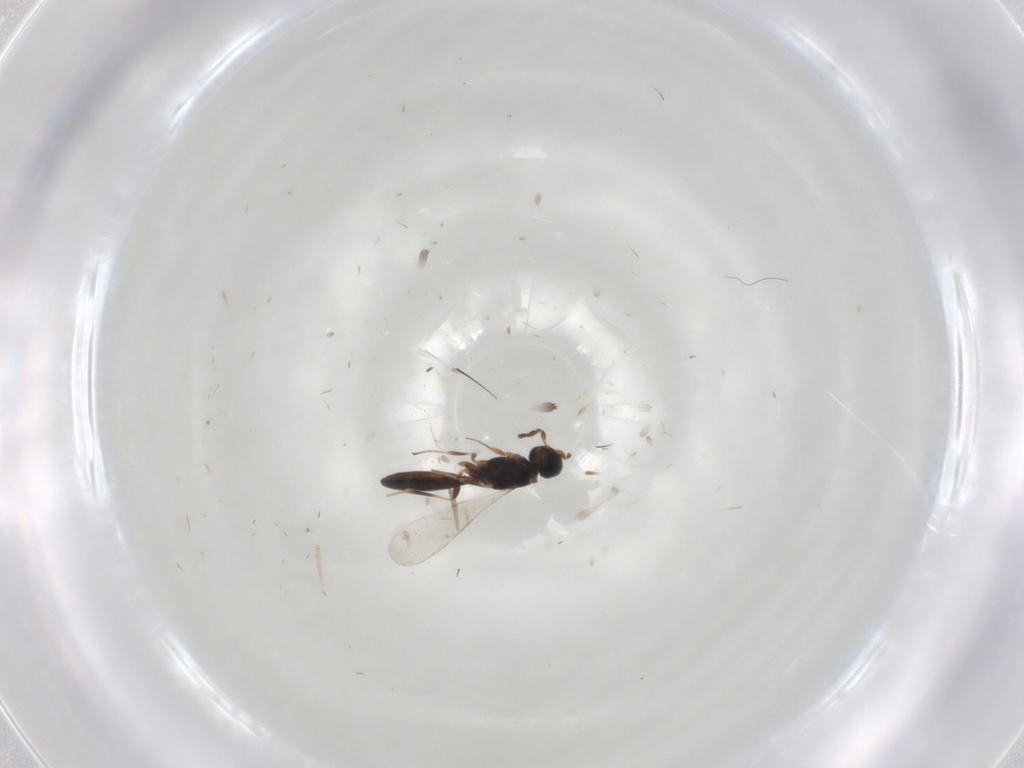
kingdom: Animalia
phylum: Arthropoda
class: Insecta
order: Hymenoptera
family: Scelionidae
